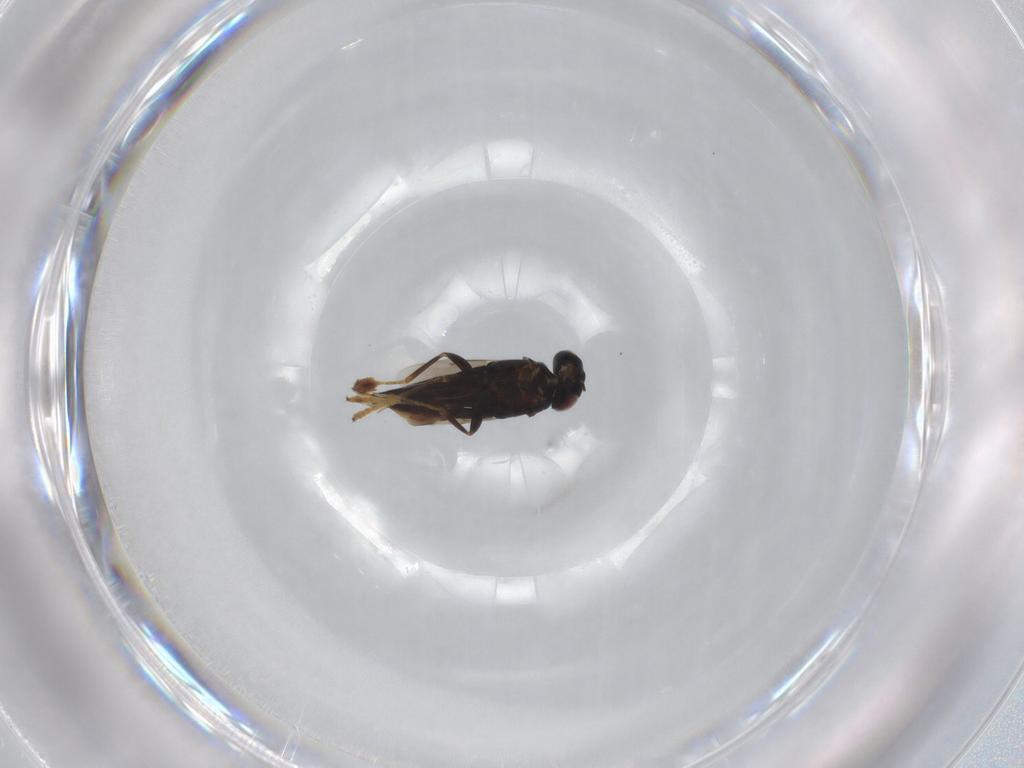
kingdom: Animalia
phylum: Arthropoda
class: Insecta
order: Hymenoptera
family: Encyrtidae
